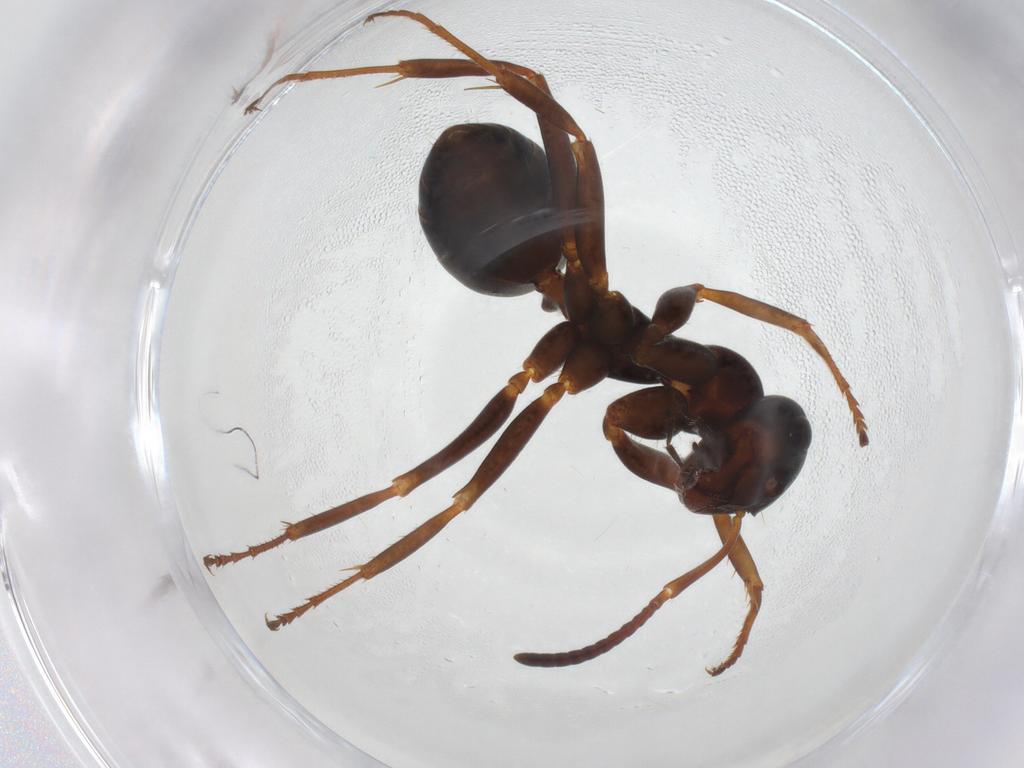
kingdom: Animalia
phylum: Arthropoda
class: Insecta
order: Hymenoptera
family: Formicidae
